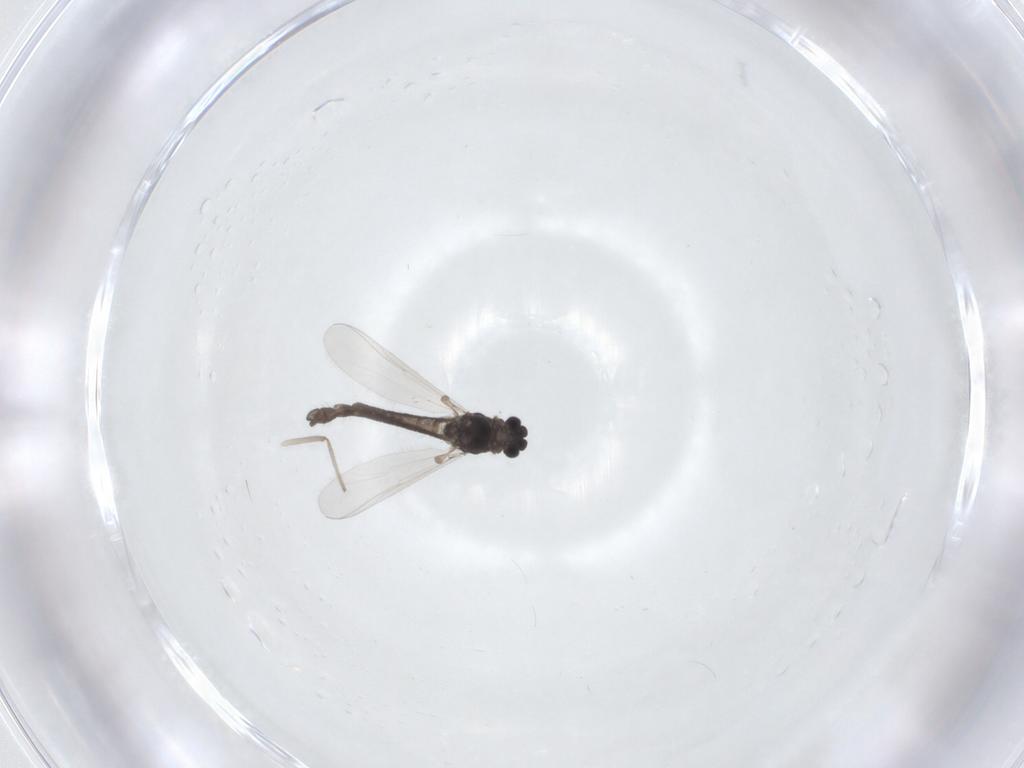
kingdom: Animalia
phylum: Arthropoda
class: Insecta
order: Diptera
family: Chironomidae
